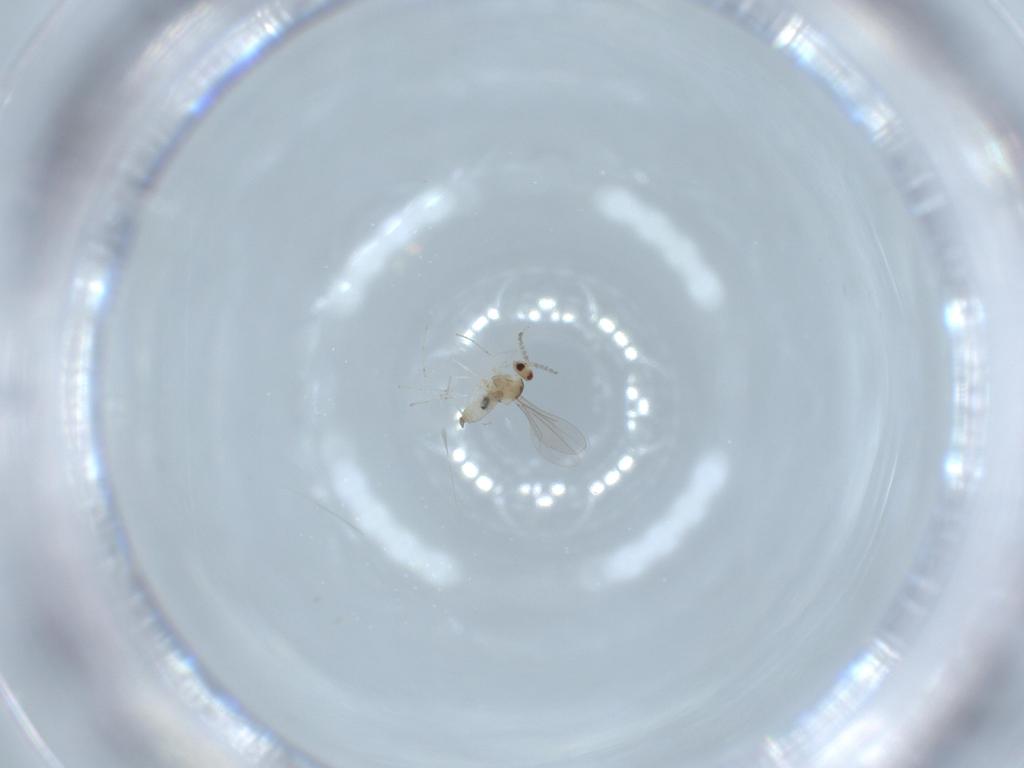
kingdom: Animalia
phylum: Arthropoda
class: Insecta
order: Diptera
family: Cecidomyiidae
